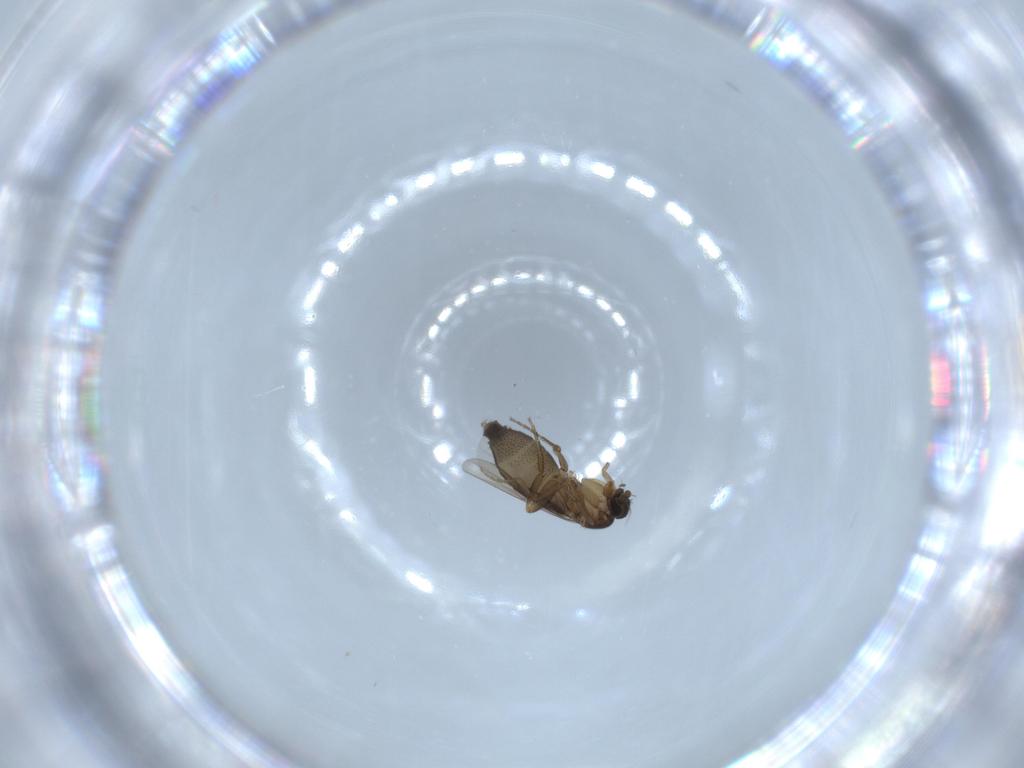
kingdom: Animalia
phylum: Arthropoda
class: Insecta
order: Diptera
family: Phoridae
